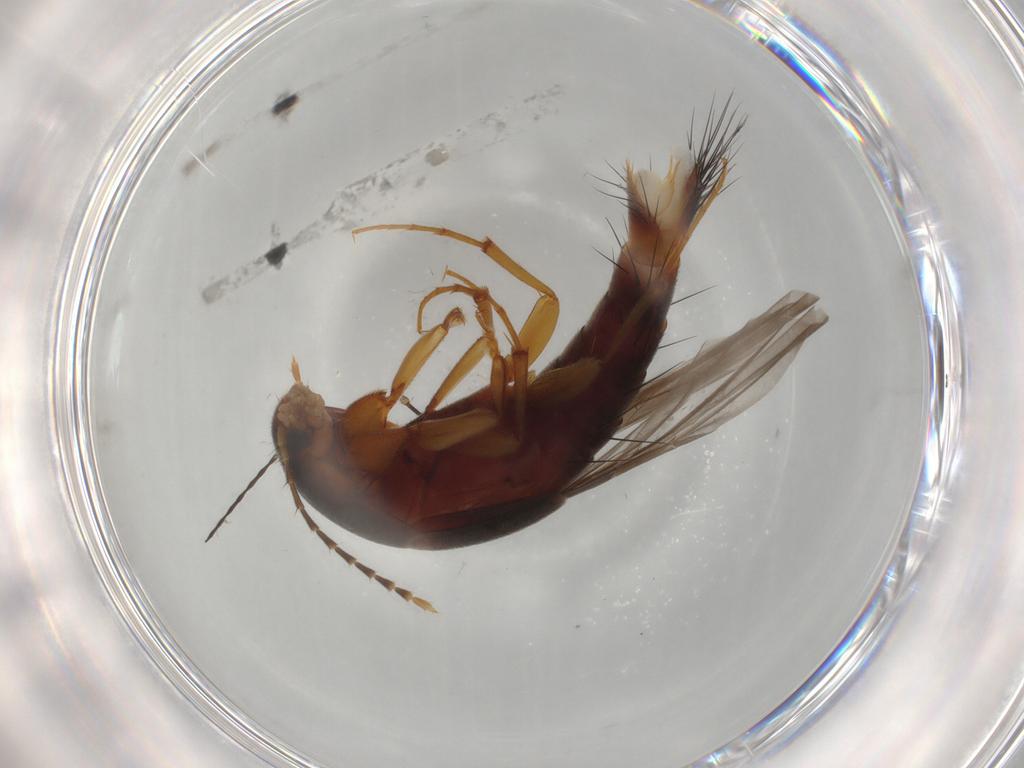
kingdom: Animalia
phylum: Arthropoda
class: Insecta
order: Coleoptera
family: Staphylinidae
